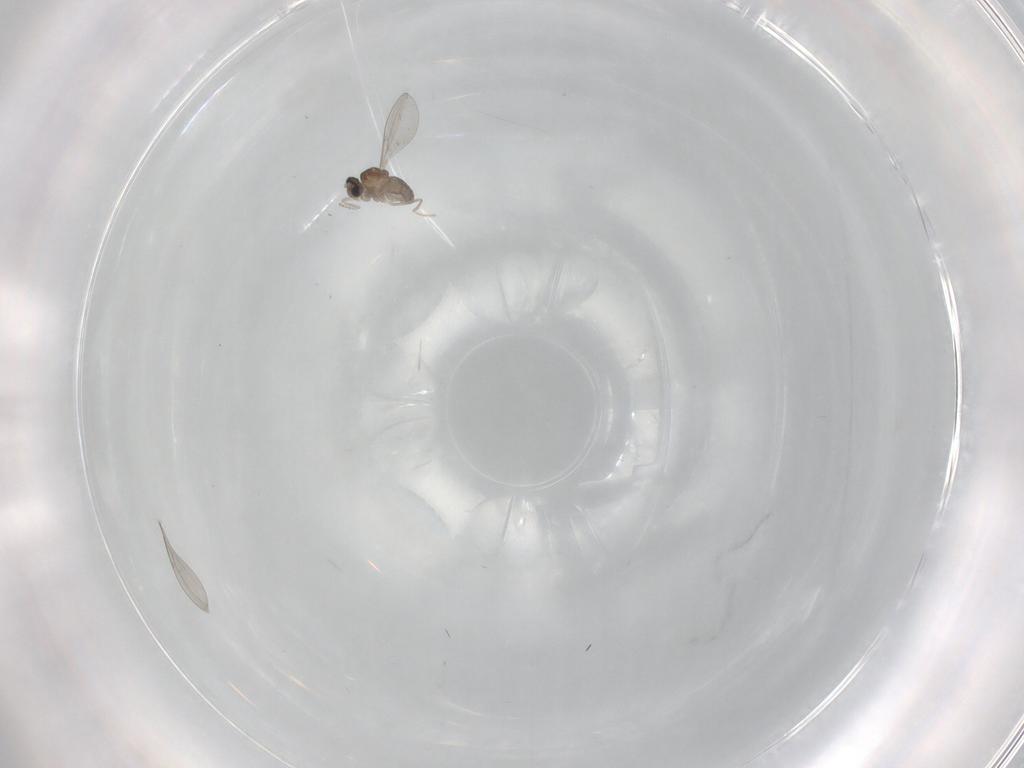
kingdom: Animalia
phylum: Arthropoda
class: Insecta
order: Diptera
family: Cecidomyiidae
